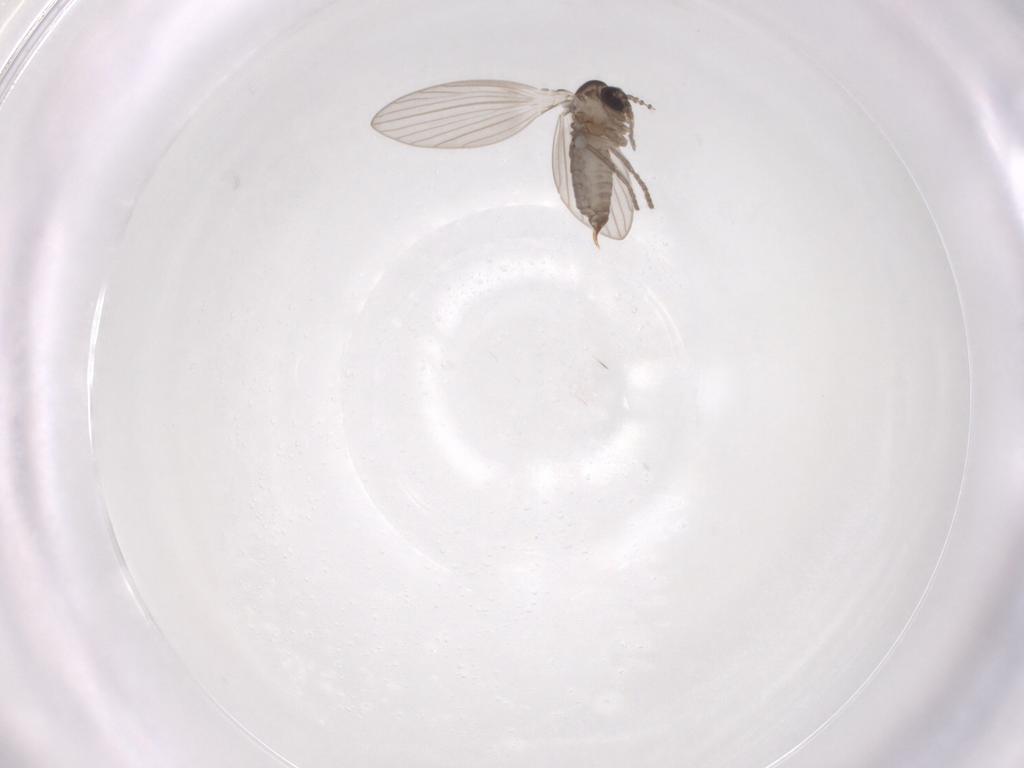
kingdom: Animalia
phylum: Arthropoda
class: Insecta
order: Diptera
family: Psychodidae
